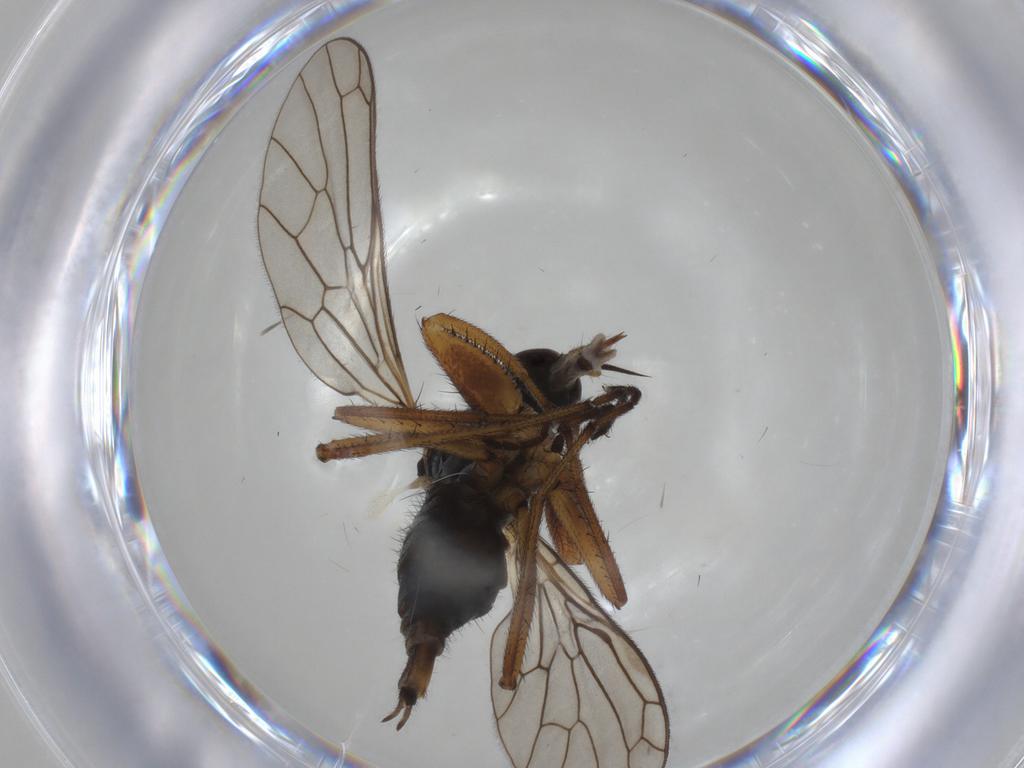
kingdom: Animalia
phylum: Arthropoda
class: Insecta
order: Diptera
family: Empididae
